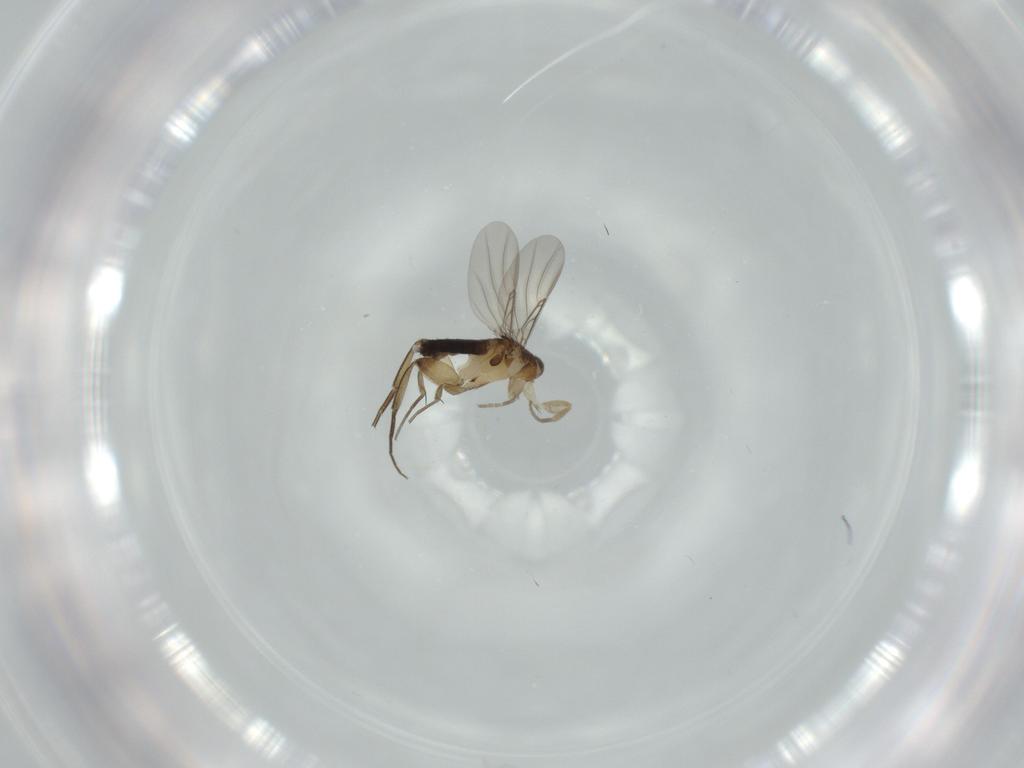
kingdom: Animalia
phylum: Arthropoda
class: Insecta
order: Diptera
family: Phoridae
